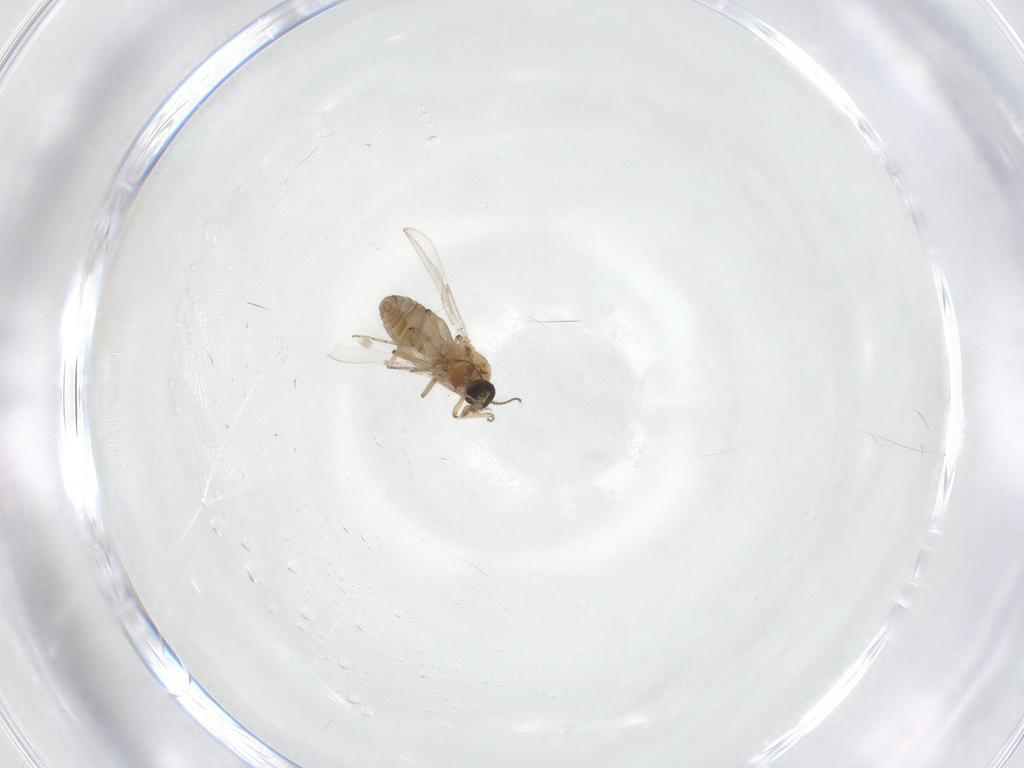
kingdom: Animalia
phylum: Arthropoda
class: Insecta
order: Diptera
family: Ceratopogonidae
